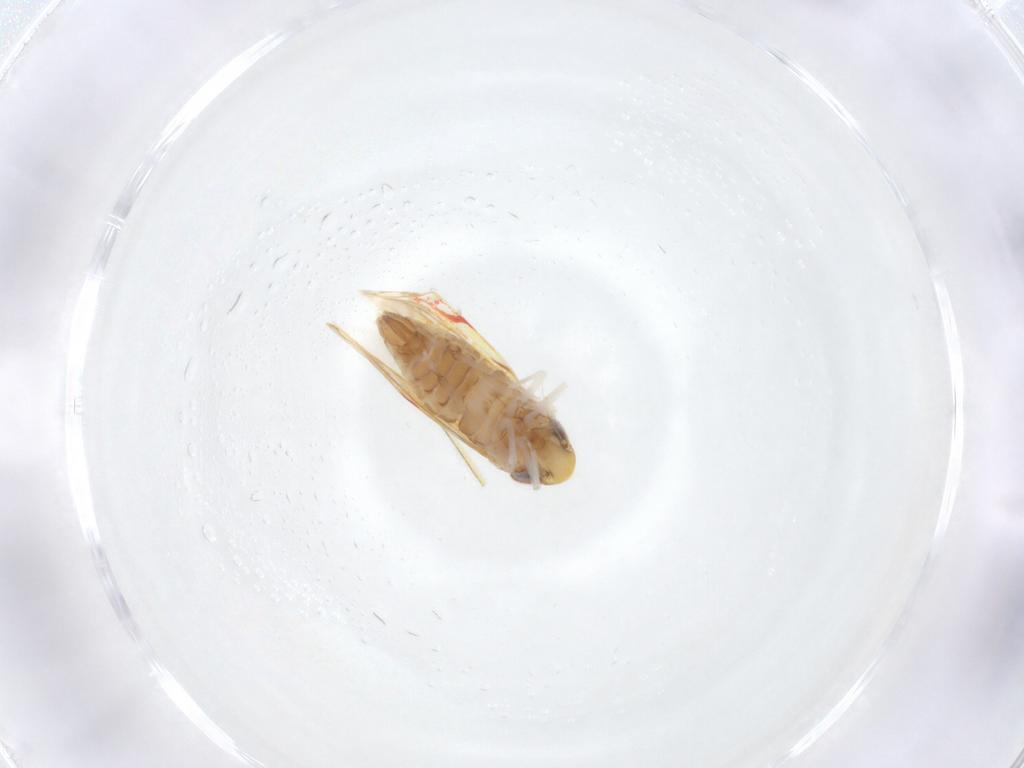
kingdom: Animalia
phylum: Arthropoda
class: Insecta
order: Hemiptera
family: Cicadellidae
